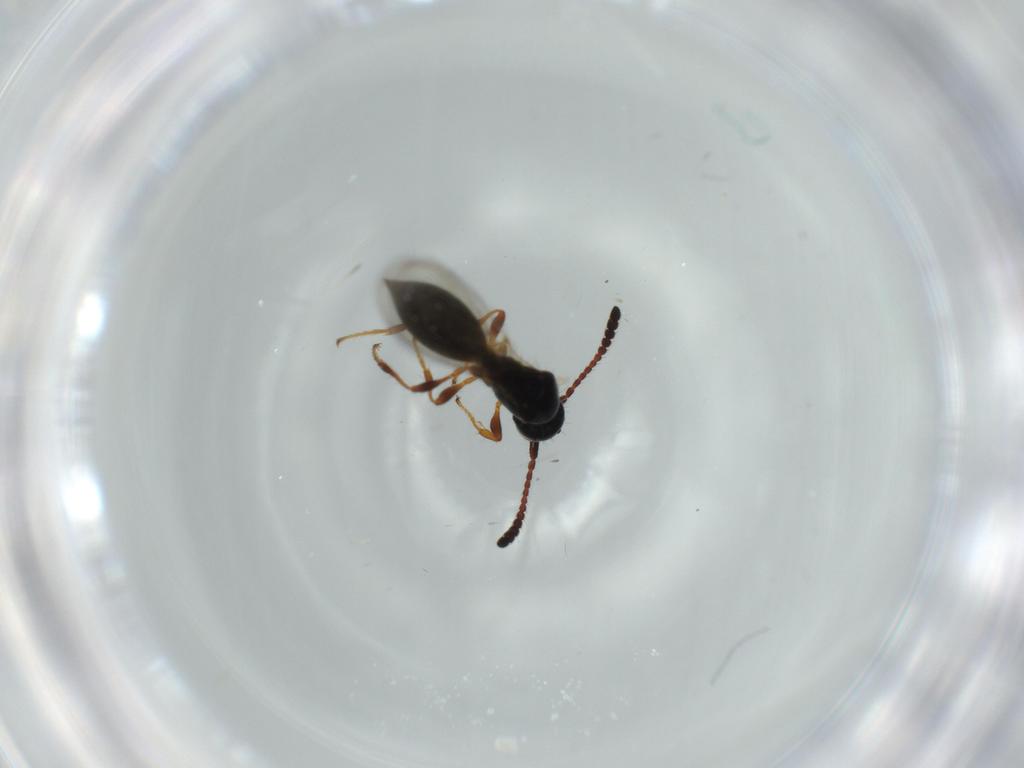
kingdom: Animalia
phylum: Arthropoda
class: Insecta
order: Hymenoptera
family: Diapriidae
